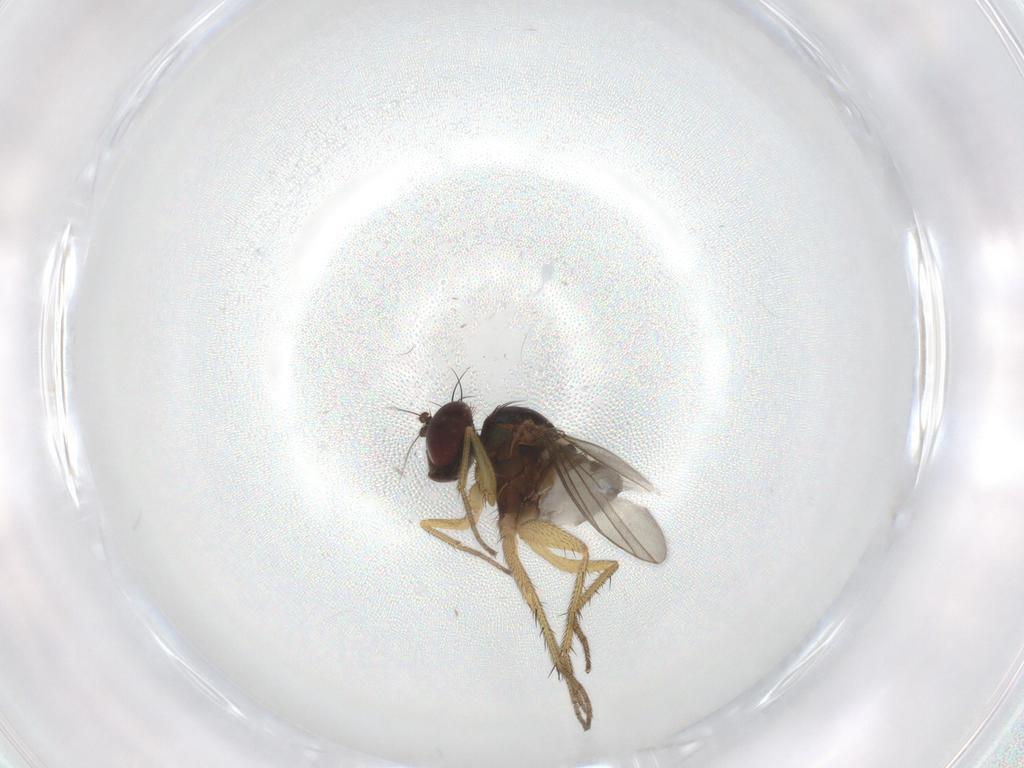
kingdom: Animalia
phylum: Arthropoda
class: Insecta
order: Diptera
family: Dolichopodidae
